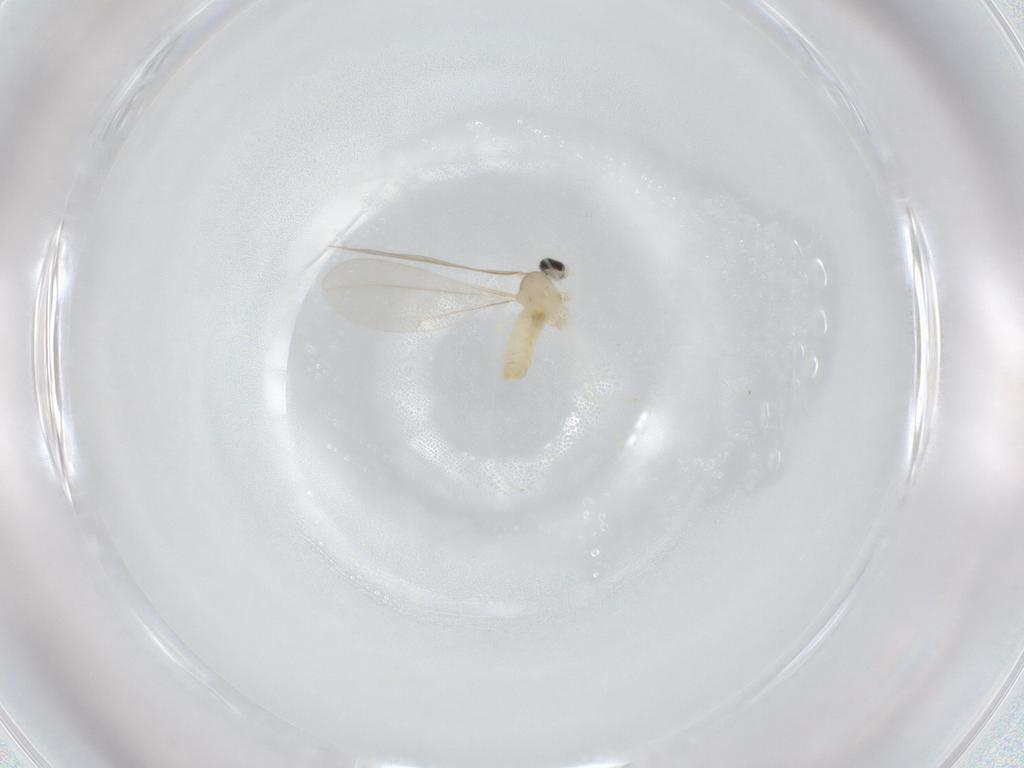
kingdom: Animalia
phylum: Arthropoda
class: Insecta
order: Diptera
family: Cecidomyiidae
